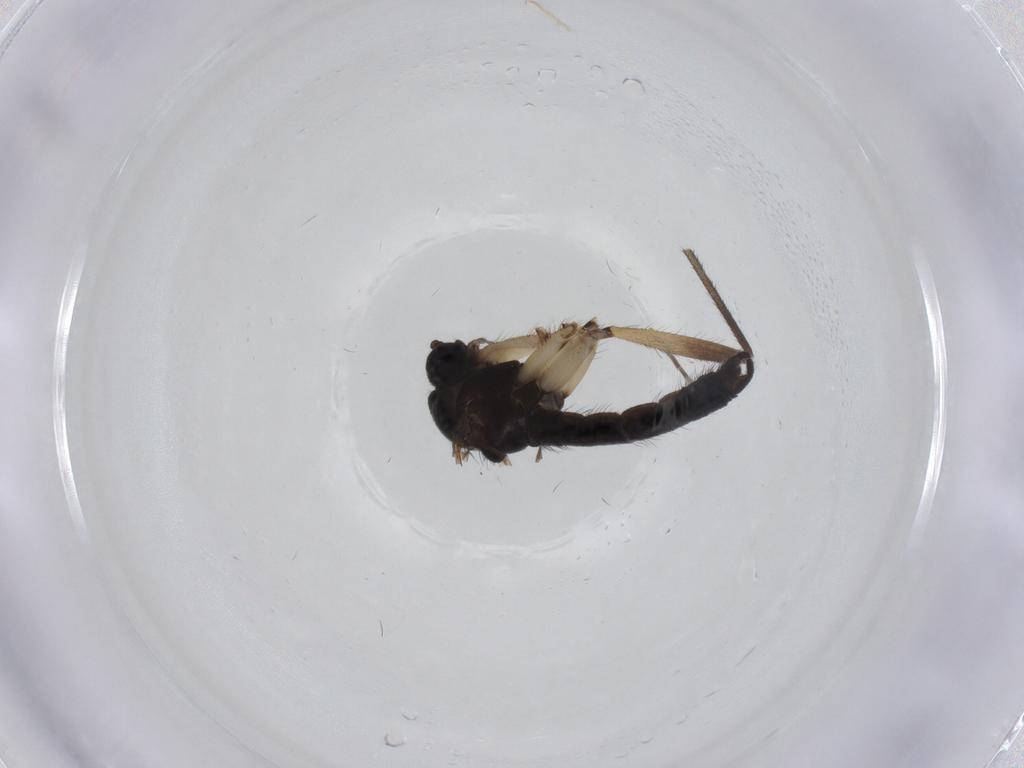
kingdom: Animalia
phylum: Arthropoda
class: Insecta
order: Diptera
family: Sciaridae
